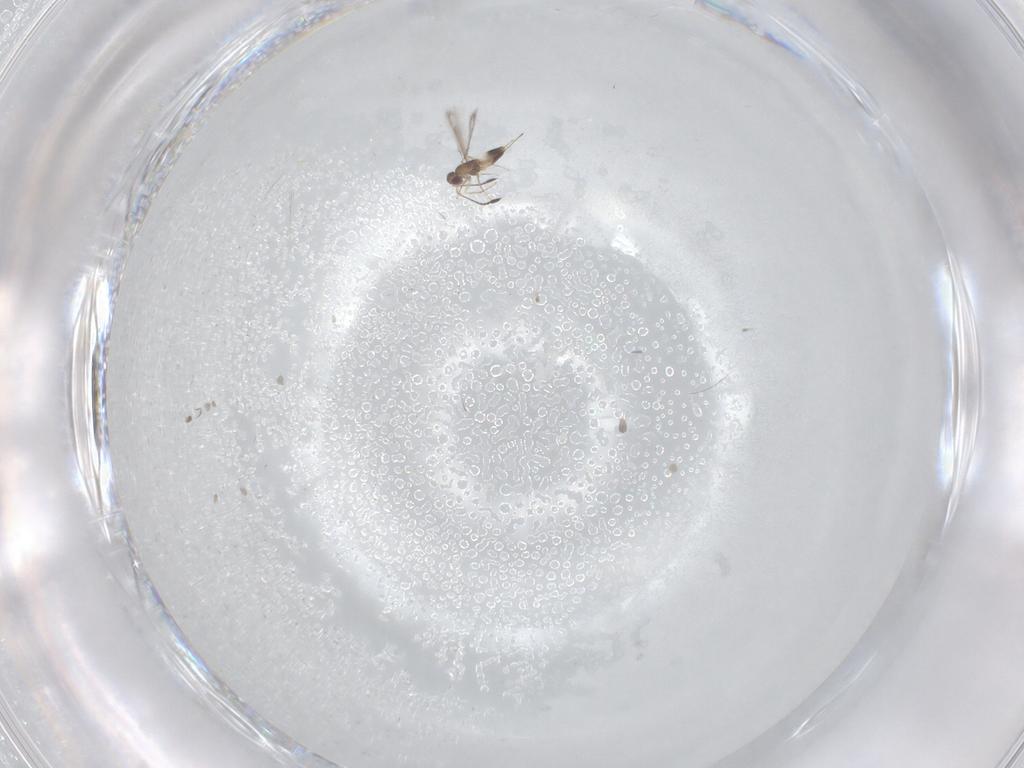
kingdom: Animalia
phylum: Arthropoda
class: Insecta
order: Hymenoptera
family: Mymaridae
